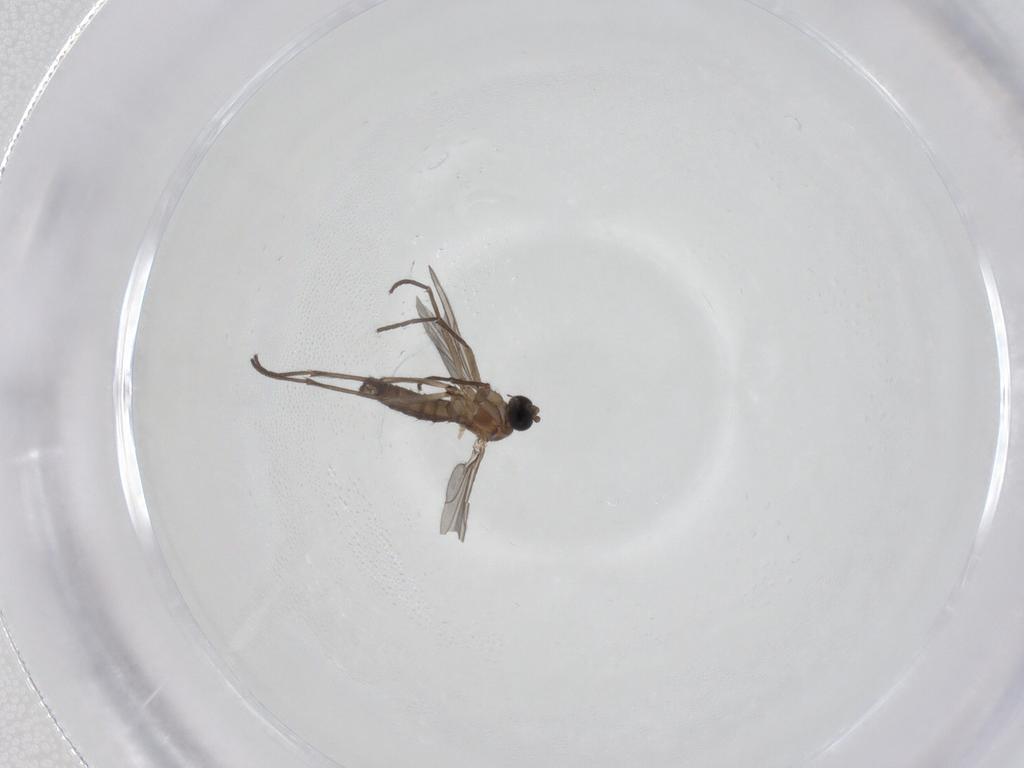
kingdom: Animalia
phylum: Arthropoda
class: Insecta
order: Diptera
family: Sciaridae
